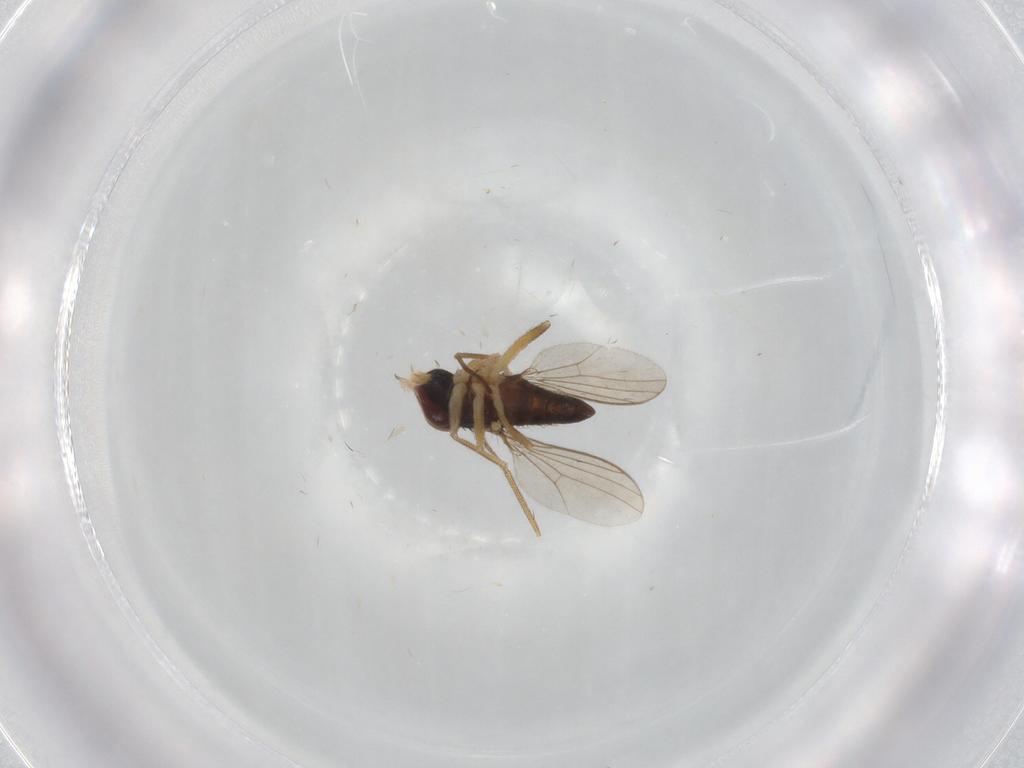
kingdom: Animalia
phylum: Arthropoda
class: Insecta
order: Diptera
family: Dolichopodidae
